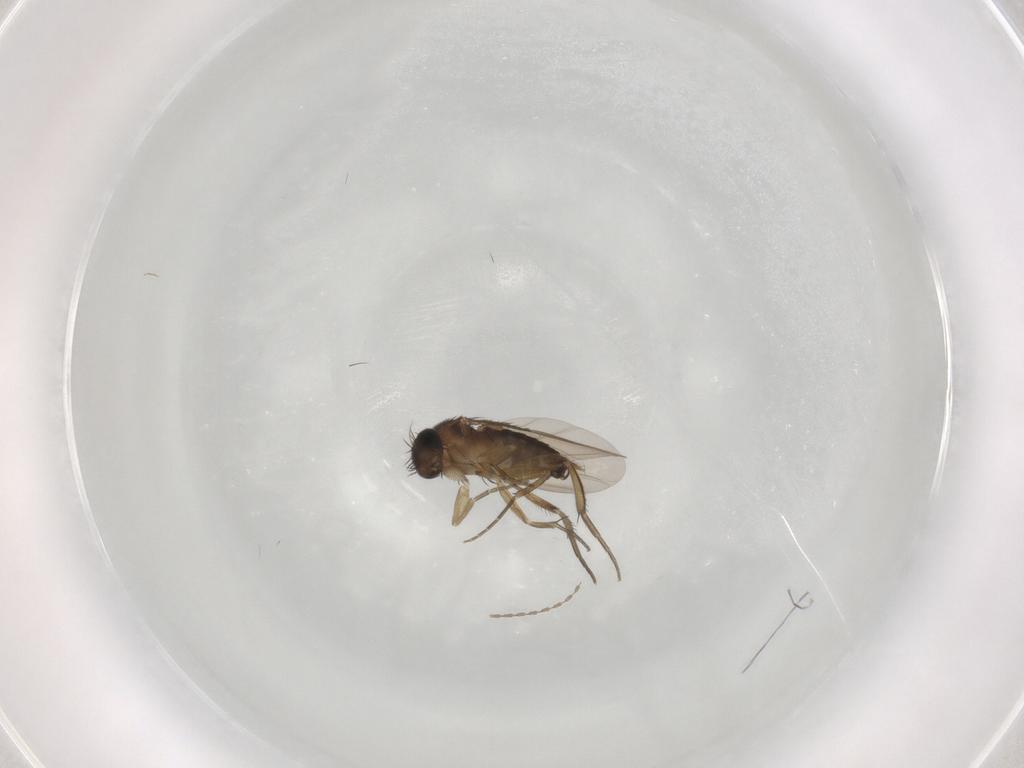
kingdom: Animalia
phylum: Arthropoda
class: Insecta
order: Diptera
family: Phoridae
